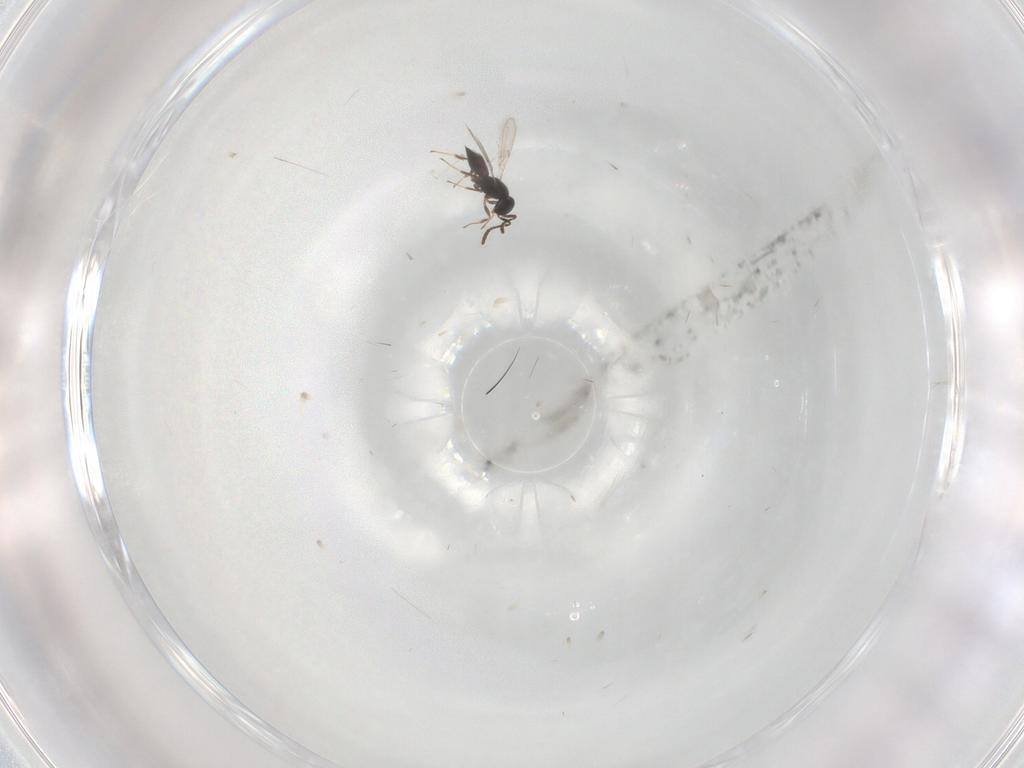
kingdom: Animalia
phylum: Arthropoda
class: Insecta
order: Hymenoptera
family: Scelionidae
